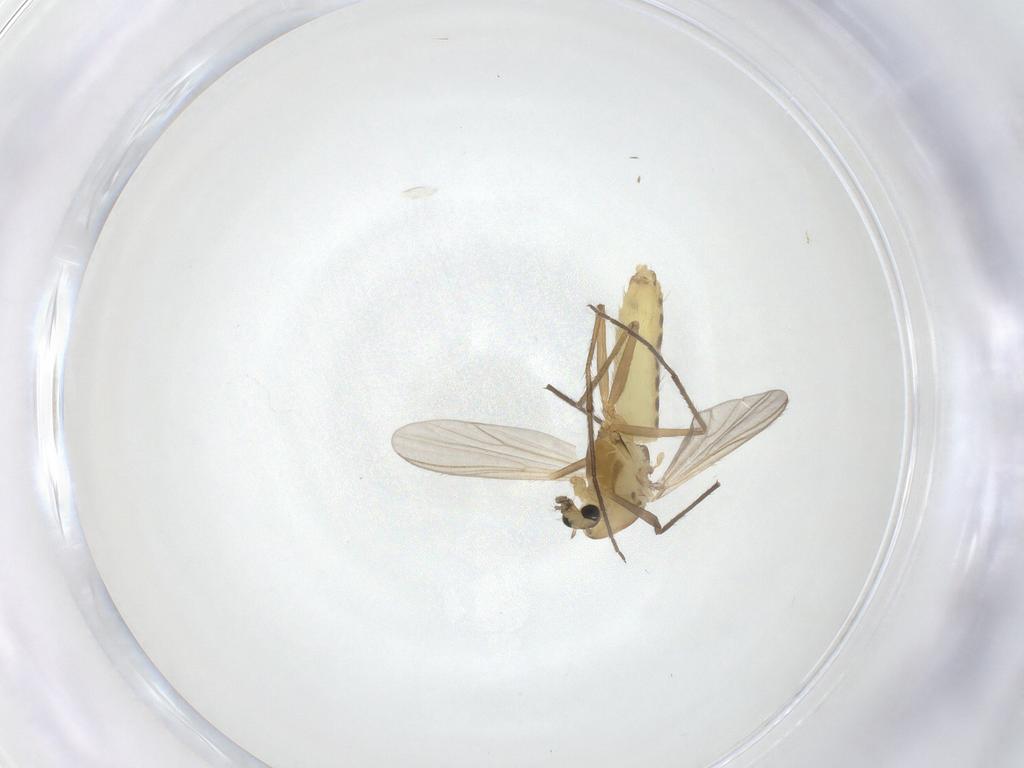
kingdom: Animalia
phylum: Arthropoda
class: Insecta
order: Diptera
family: Chironomidae
